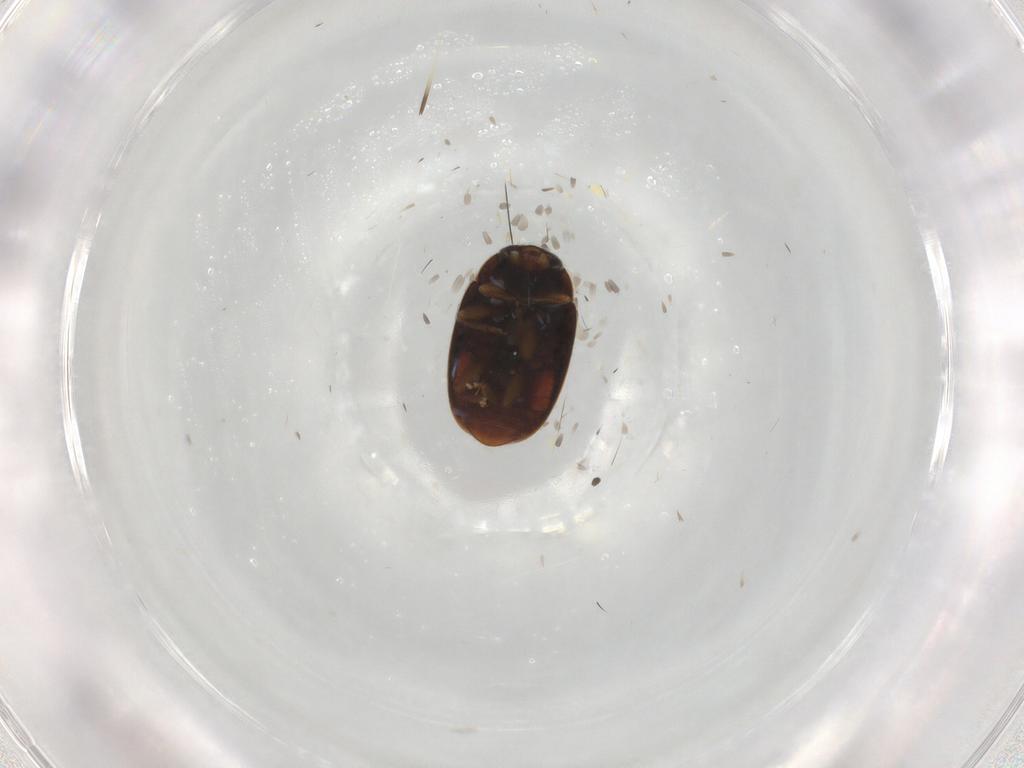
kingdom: Animalia
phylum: Arthropoda
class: Insecta
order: Coleoptera
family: Coccinellidae
